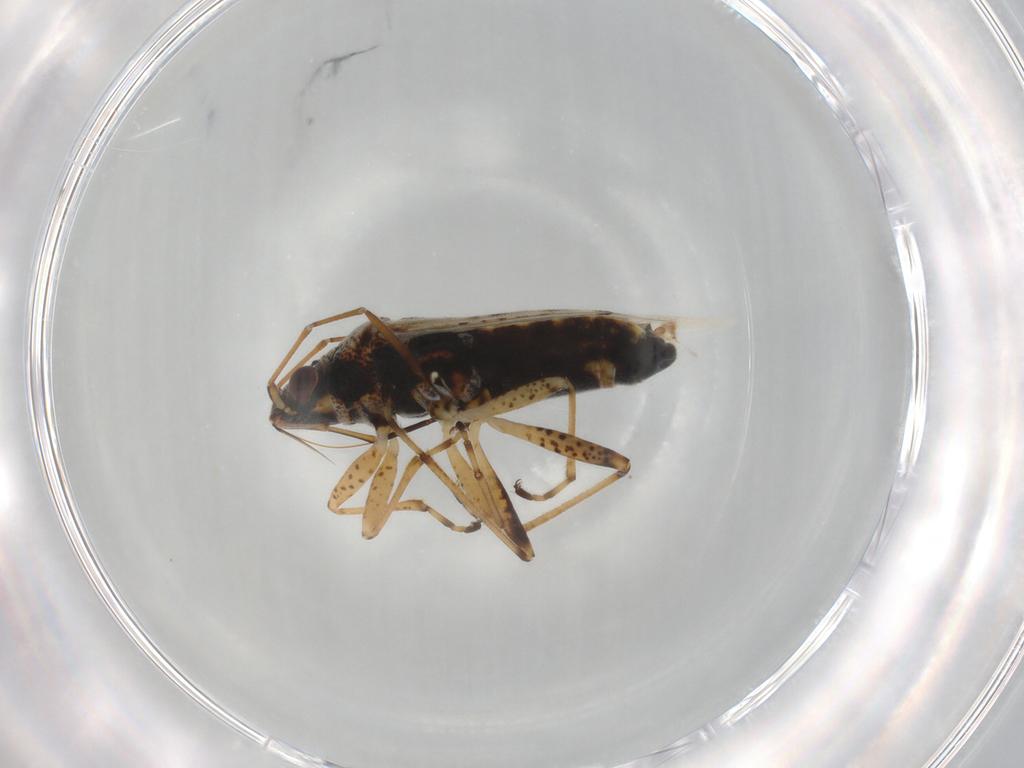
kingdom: Animalia
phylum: Arthropoda
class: Insecta
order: Hemiptera
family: Lygaeidae
